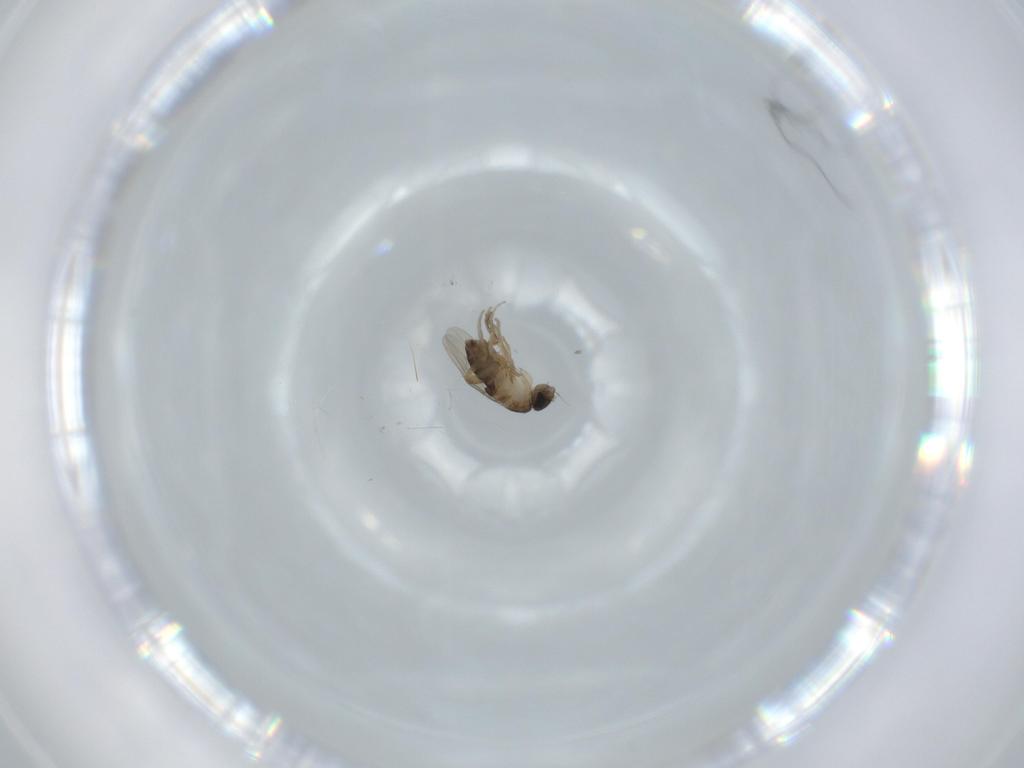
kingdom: Animalia
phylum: Arthropoda
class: Insecta
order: Diptera
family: Phoridae
